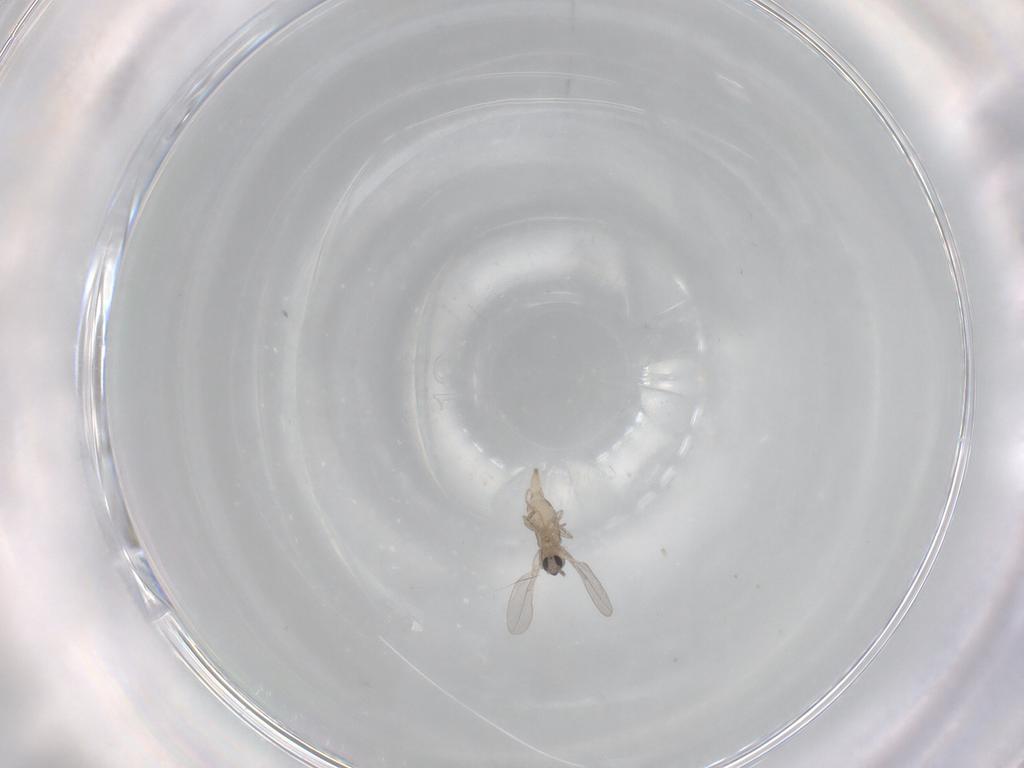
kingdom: Animalia
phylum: Arthropoda
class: Insecta
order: Diptera
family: Cecidomyiidae
